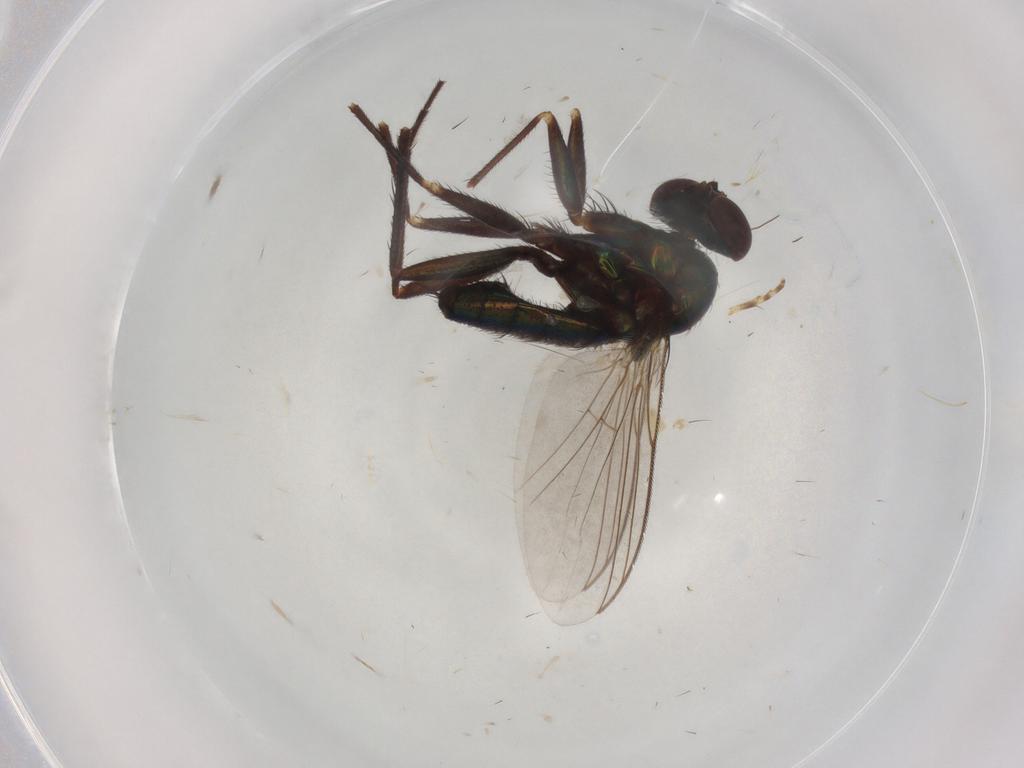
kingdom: Animalia
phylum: Arthropoda
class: Insecta
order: Diptera
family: Dolichopodidae
